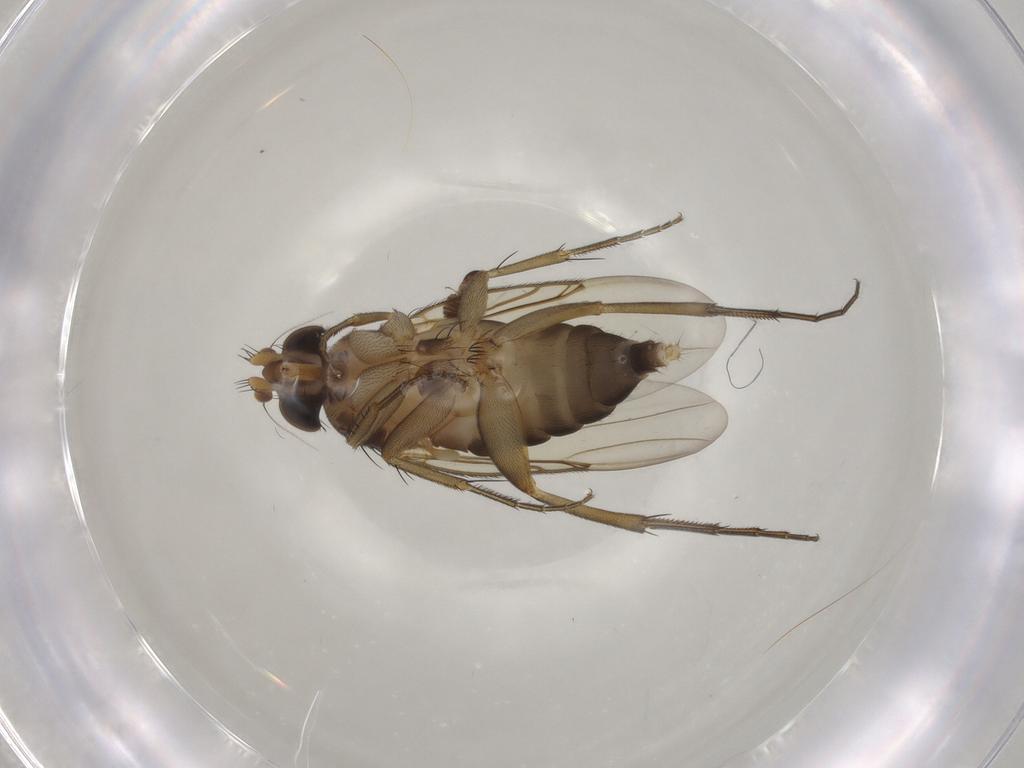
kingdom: Animalia
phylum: Arthropoda
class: Insecta
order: Diptera
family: Phoridae
